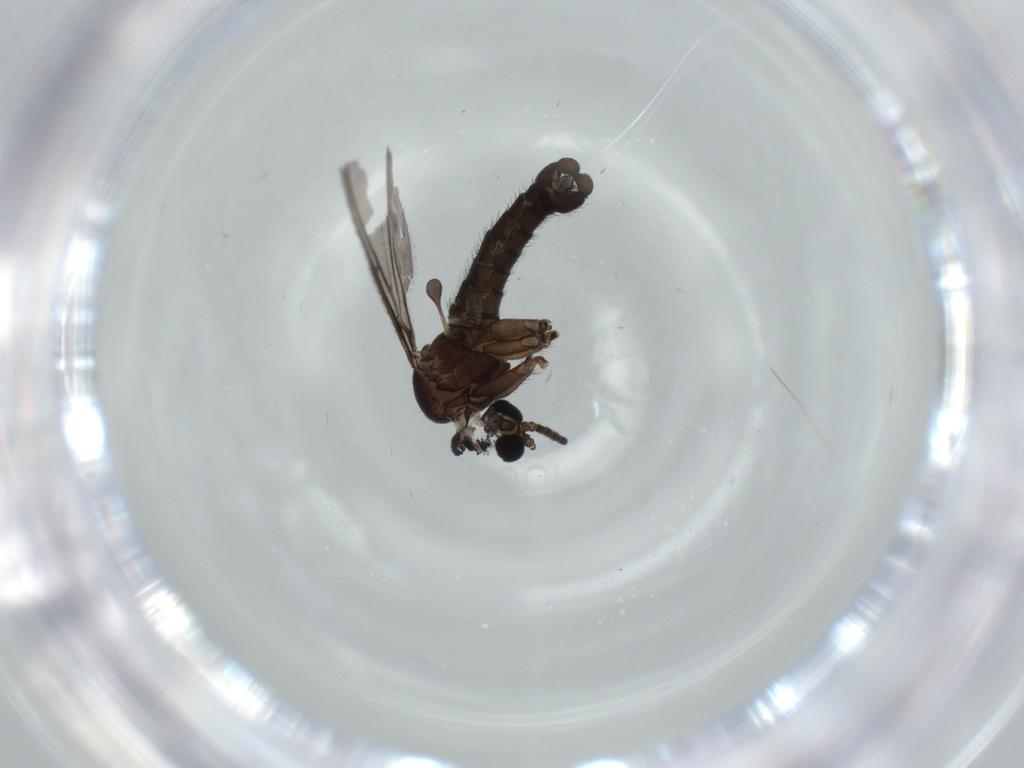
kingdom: Animalia
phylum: Arthropoda
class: Insecta
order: Diptera
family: Sciaridae
